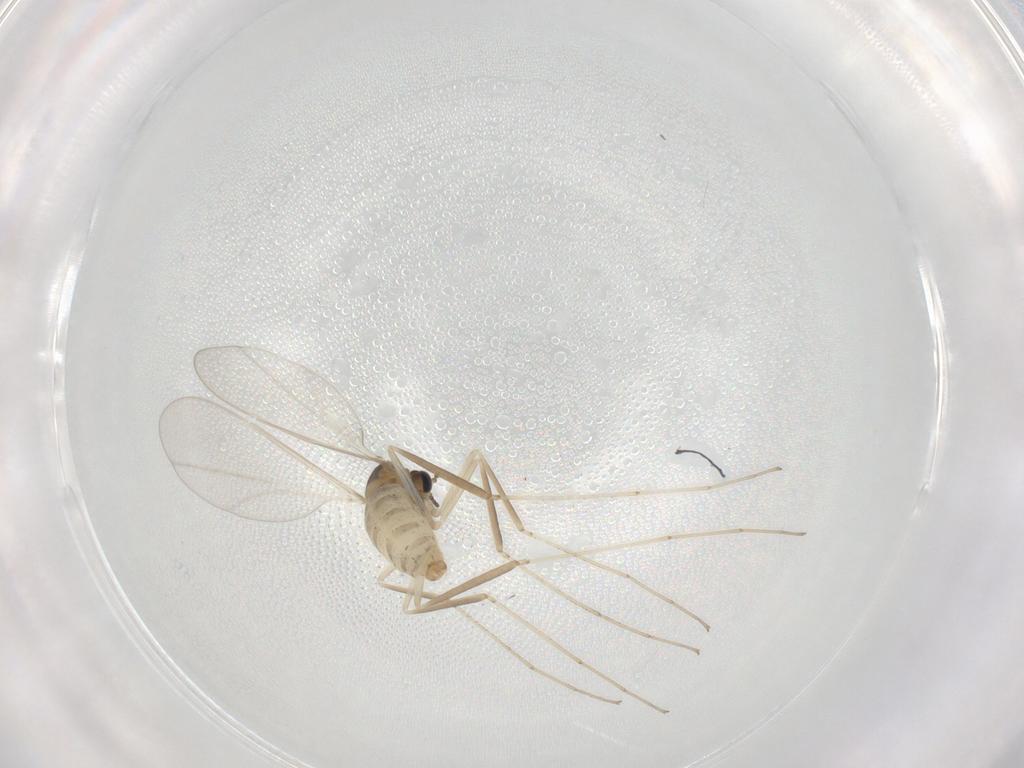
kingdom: Animalia
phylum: Arthropoda
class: Insecta
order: Diptera
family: Cecidomyiidae
